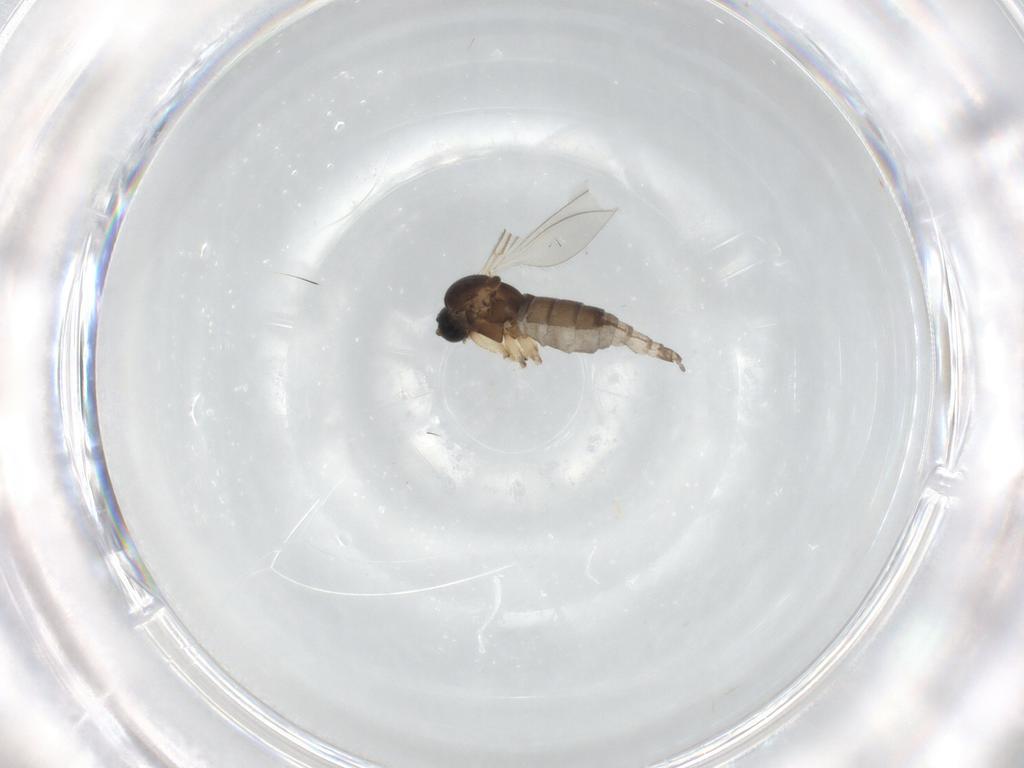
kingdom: Animalia
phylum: Arthropoda
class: Insecta
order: Diptera
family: Sciaridae
